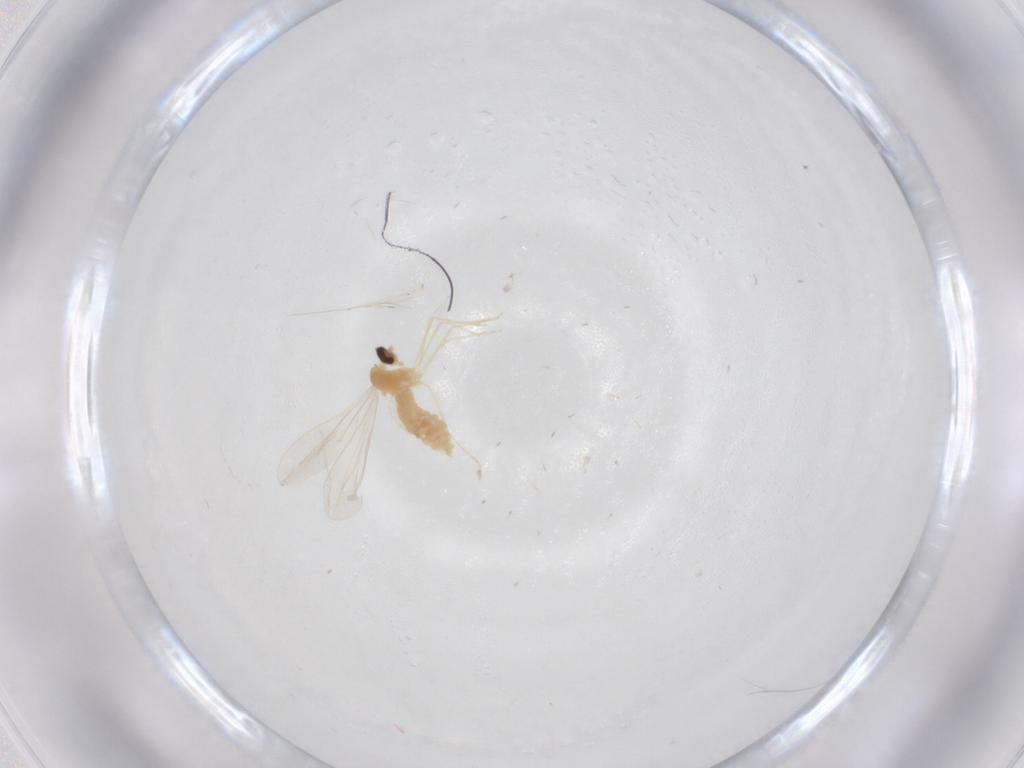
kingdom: Animalia
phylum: Arthropoda
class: Insecta
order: Diptera
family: Cecidomyiidae
